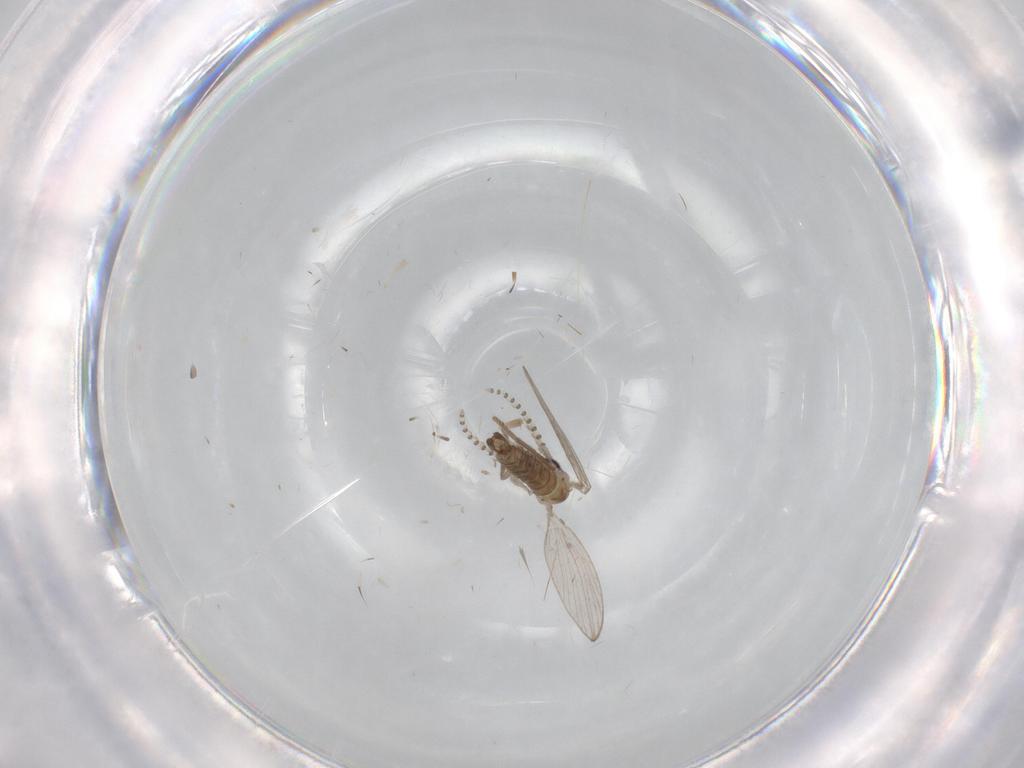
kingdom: Animalia
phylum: Arthropoda
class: Insecta
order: Diptera
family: Psychodidae
